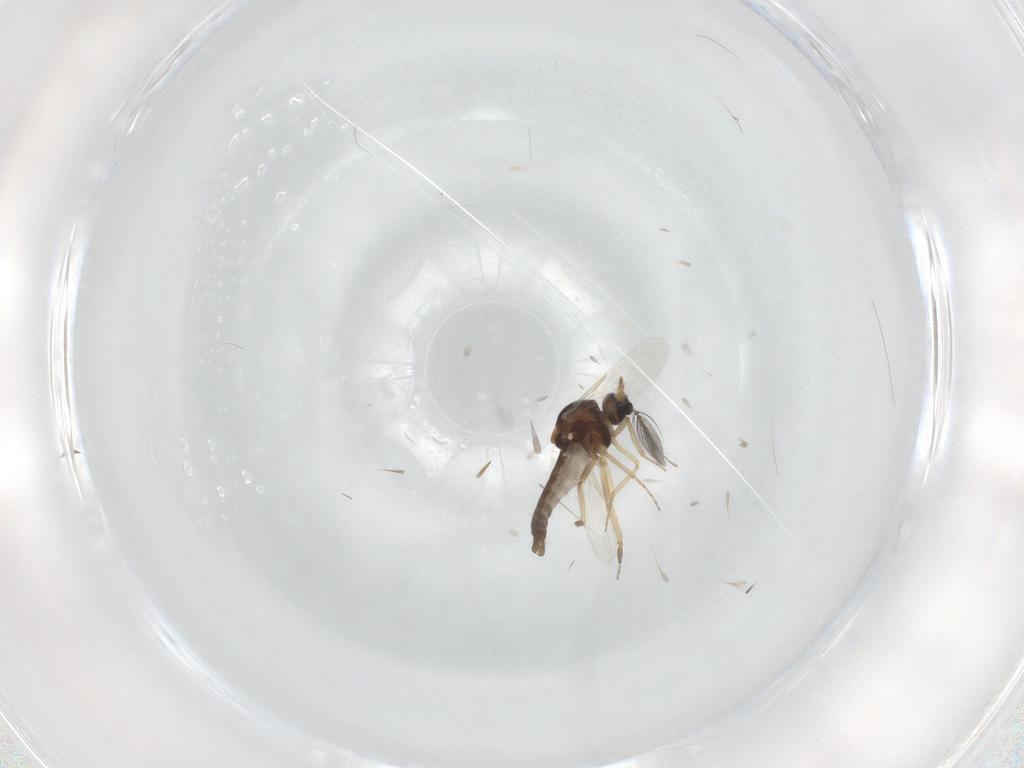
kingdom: Animalia
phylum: Arthropoda
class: Insecta
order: Diptera
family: Ceratopogonidae
